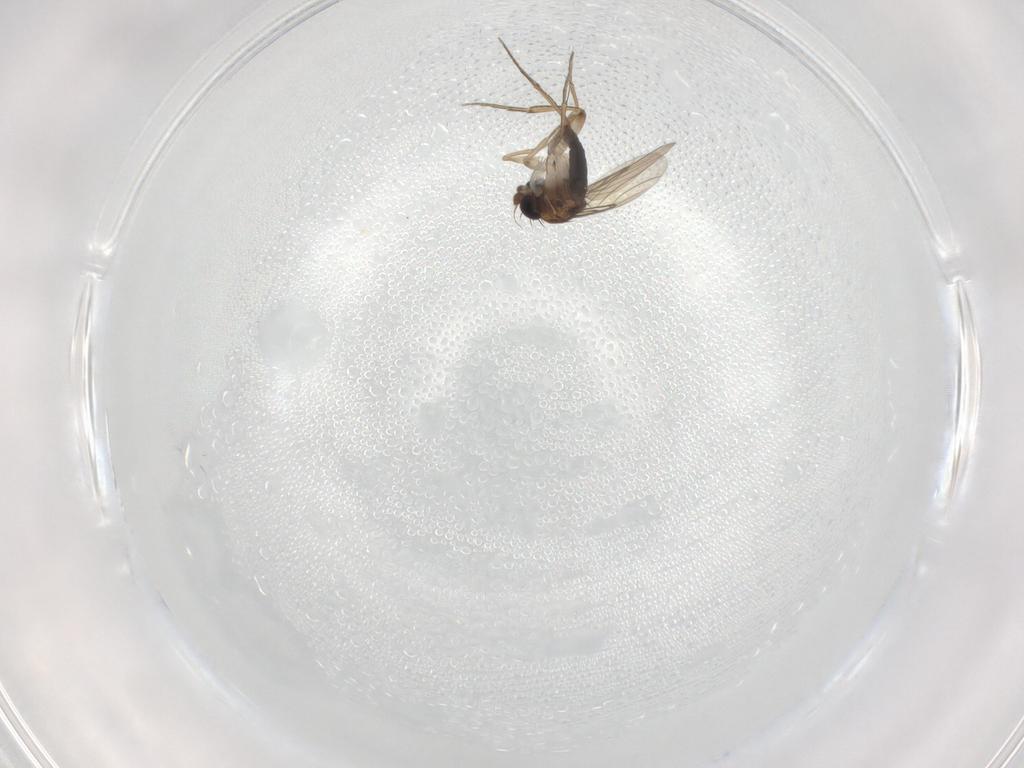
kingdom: Animalia
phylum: Arthropoda
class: Insecta
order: Diptera
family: Phoridae
